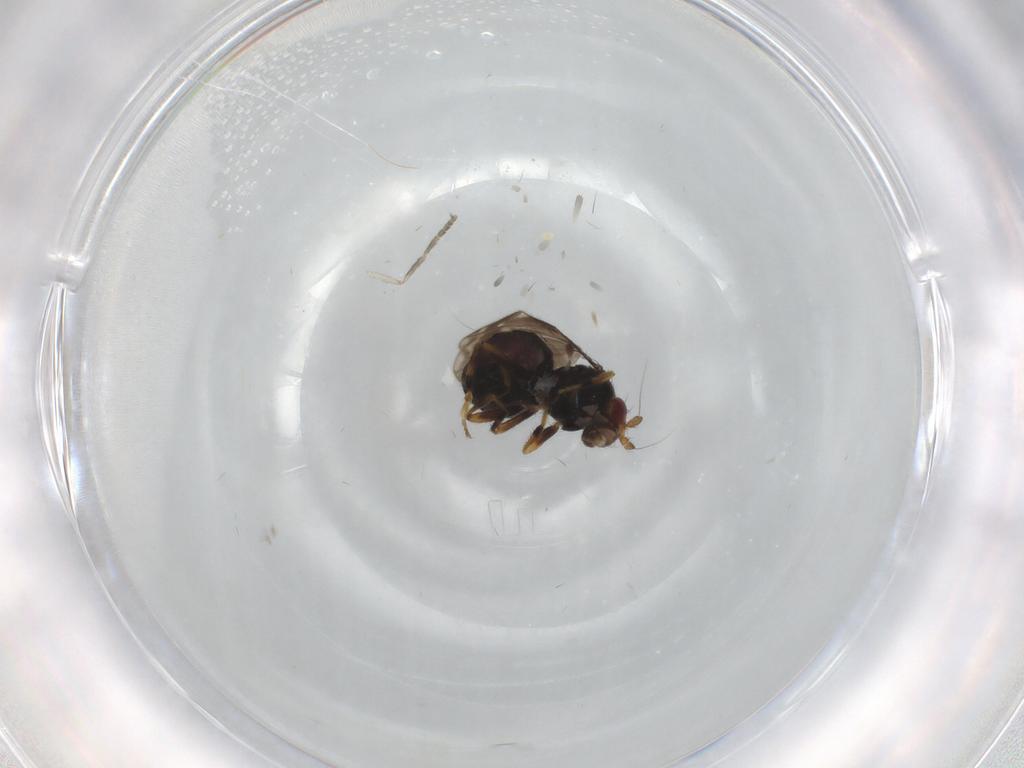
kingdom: Animalia
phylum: Arthropoda
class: Insecta
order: Diptera
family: Sphaeroceridae
